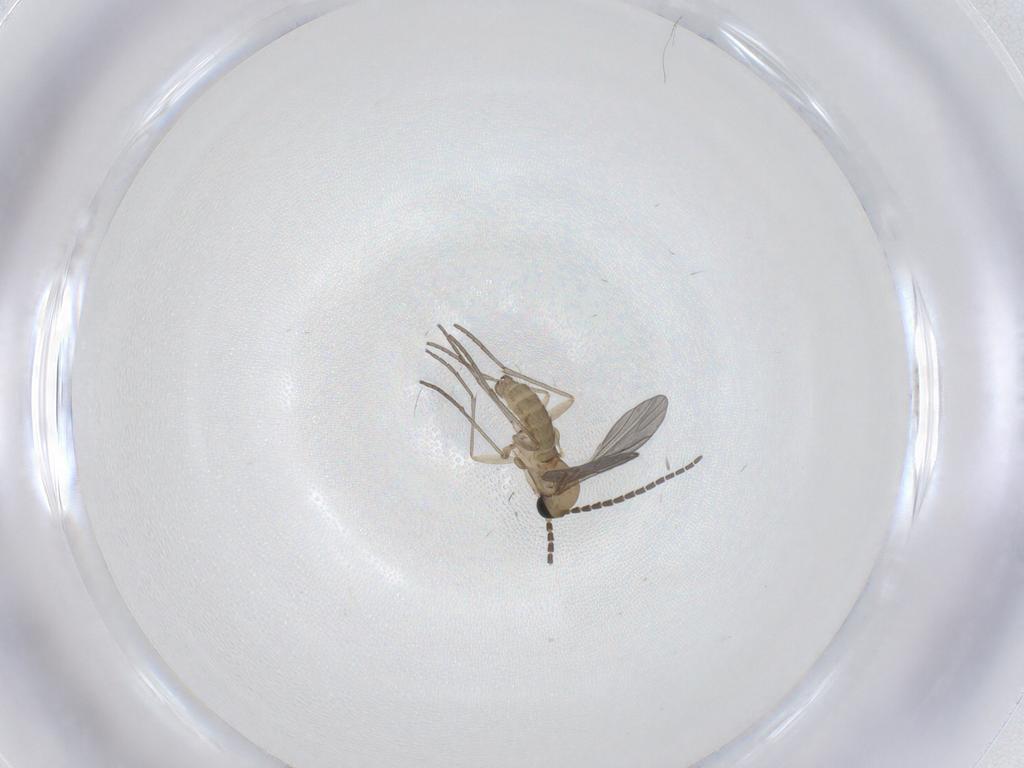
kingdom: Animalia
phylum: Arthropoda
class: Insecta
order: Diptera
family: Sciaridae
